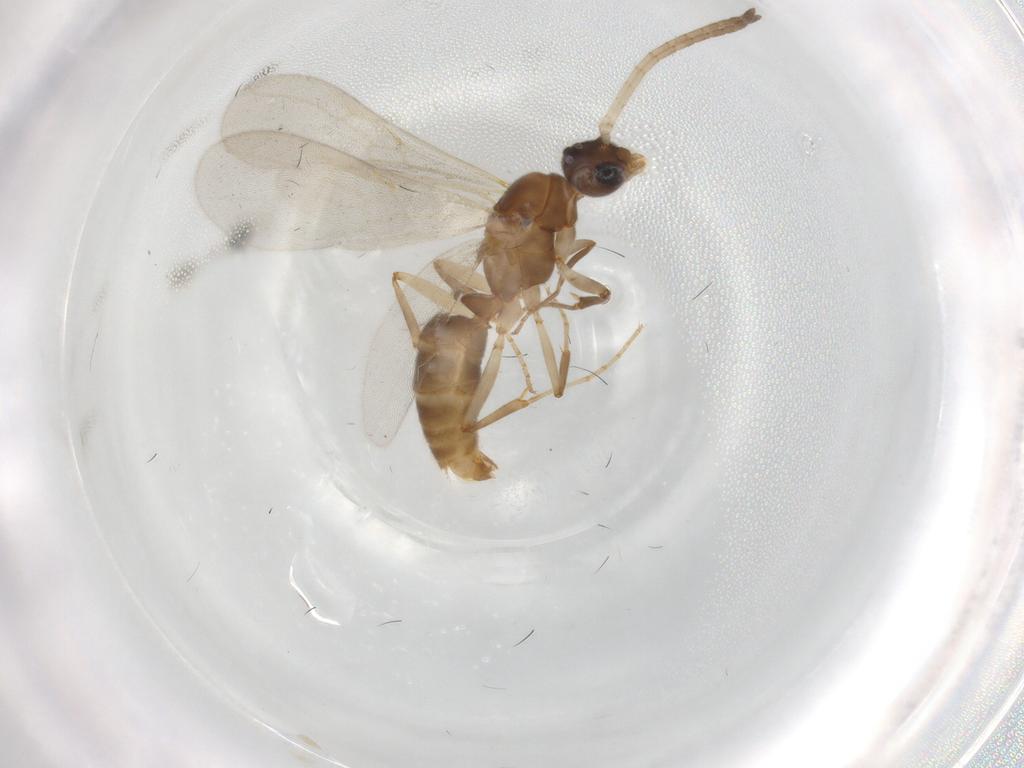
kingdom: Animalia
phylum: Arthropoda
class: Insecta
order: Hymenoptera
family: Formicidae
